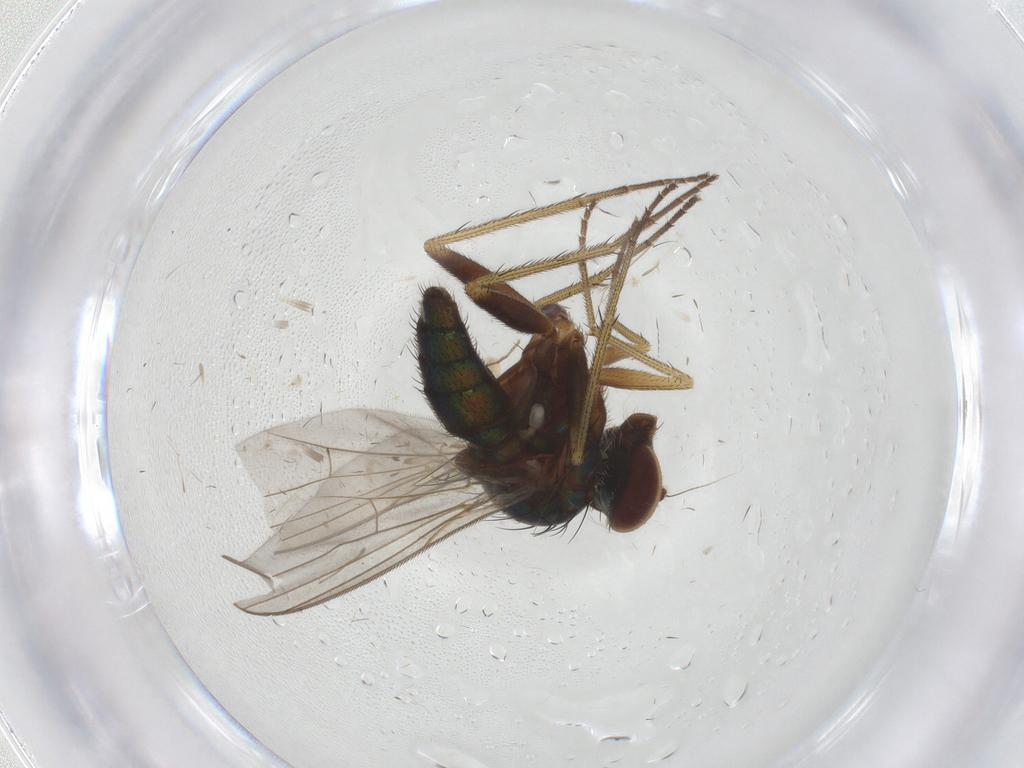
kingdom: Animalia
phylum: Arthropoda
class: Insecta
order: Diptera
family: Dolichopodidae
